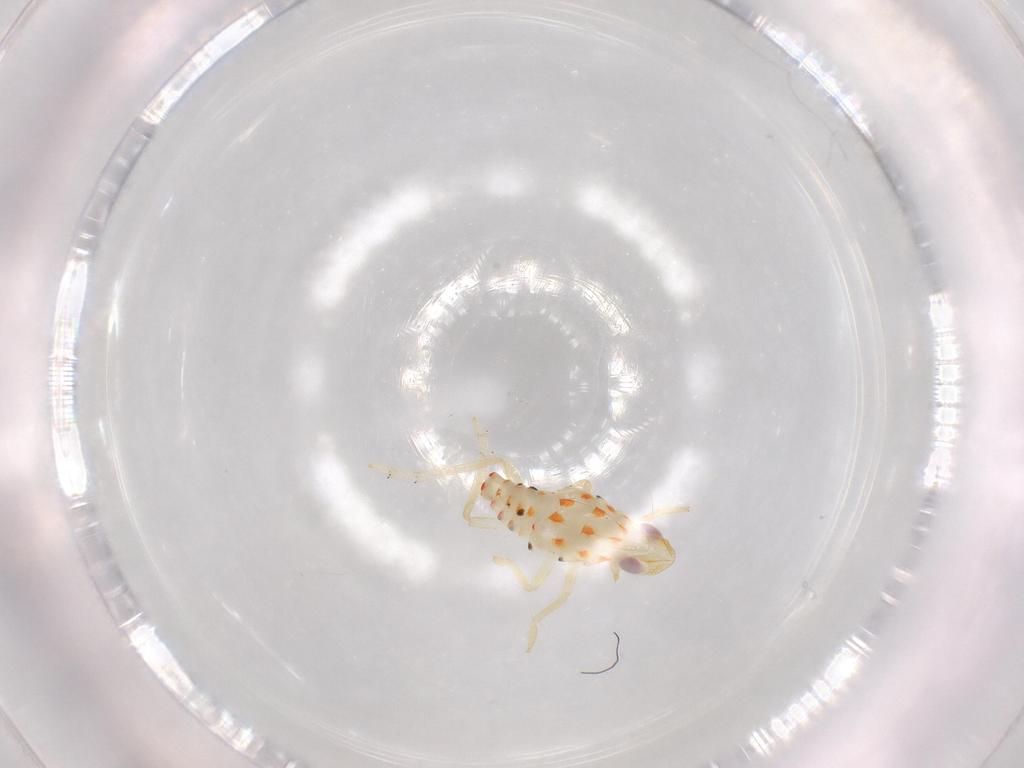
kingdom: Animalia
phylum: Arthropoda
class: Insecta
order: Hemiptera
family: Tropiduchidae
